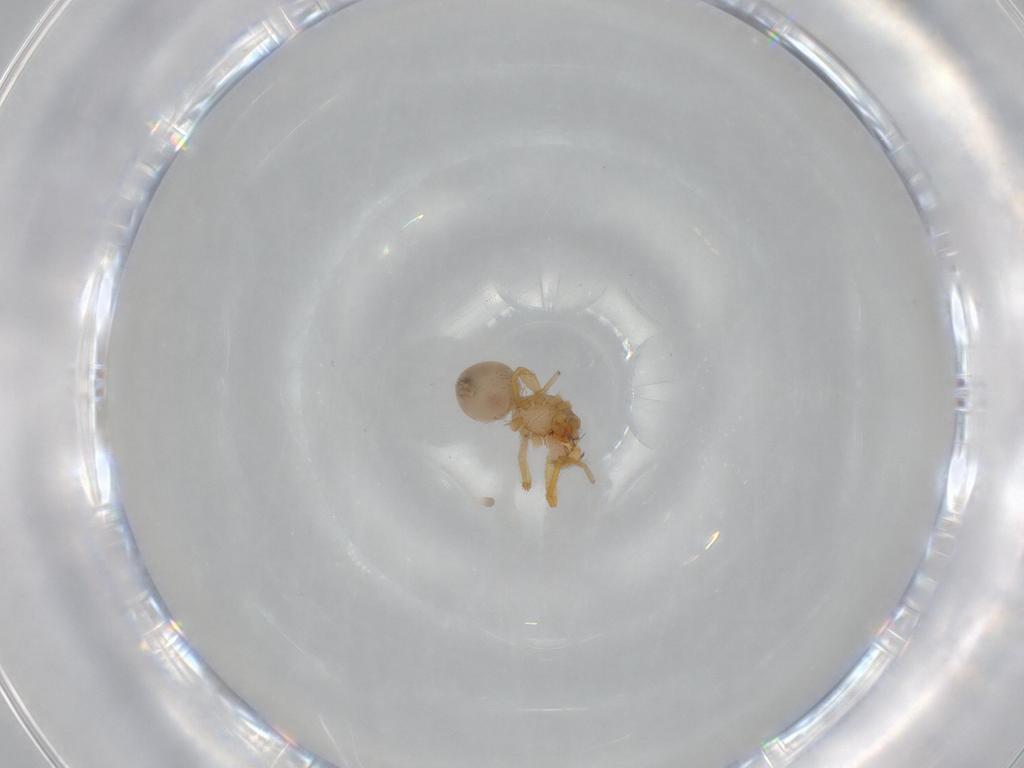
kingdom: Animalia
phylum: Arthropoda
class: Arachnida
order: Araneae
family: Oonopidae
